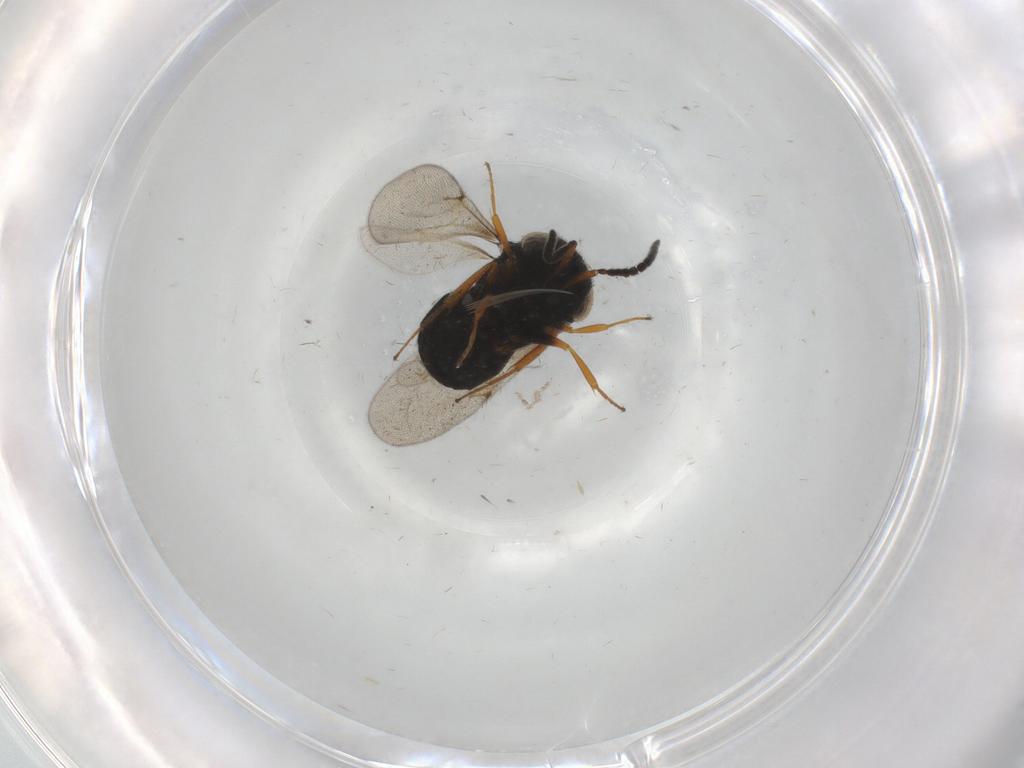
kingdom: Animalia
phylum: Arthropoda
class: Insecta
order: Hymenoptera
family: Scelionidae
